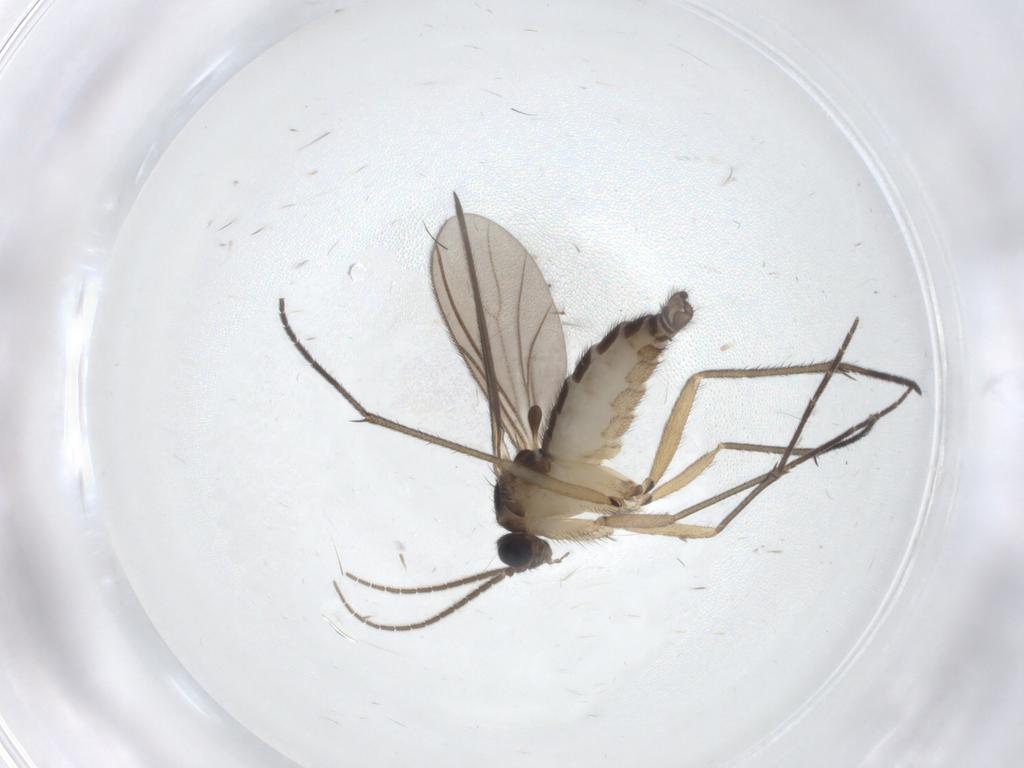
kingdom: Animalia
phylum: Arthropoda
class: Insecta
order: Diptera
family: Sciaridae
